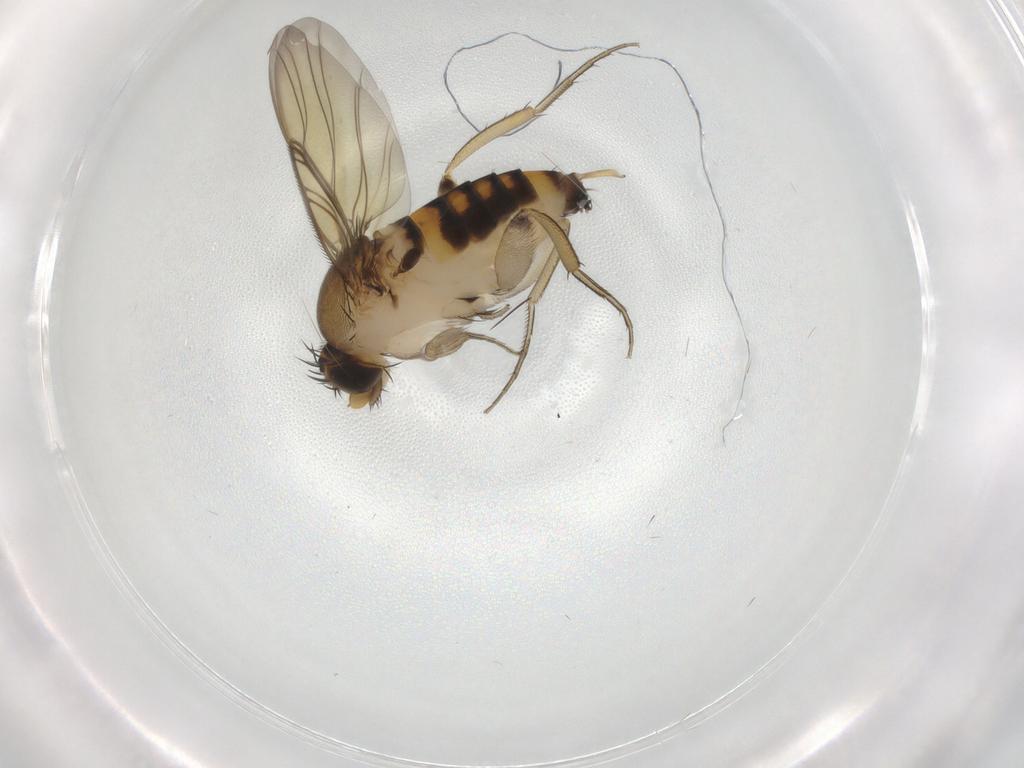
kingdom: Animalia
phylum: Arthropoda
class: Insecta
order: Diptera
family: Phoridae
